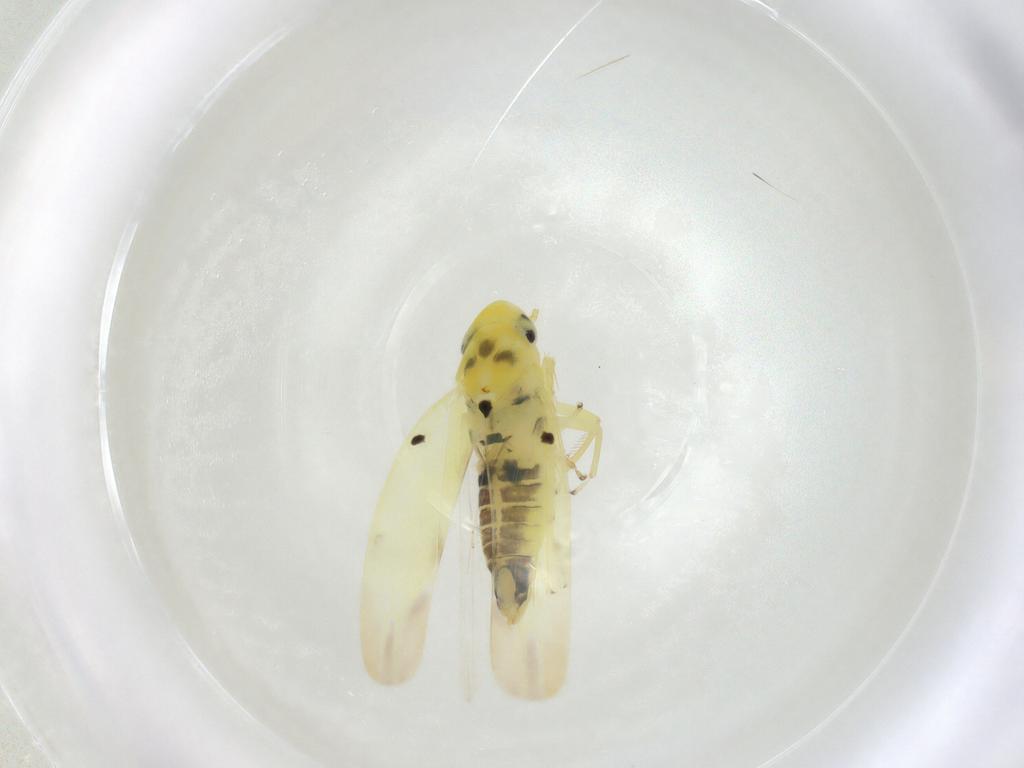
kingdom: Animalia
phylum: Arthropoda
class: Insecta
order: Hemiptera
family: Cicadellidae
